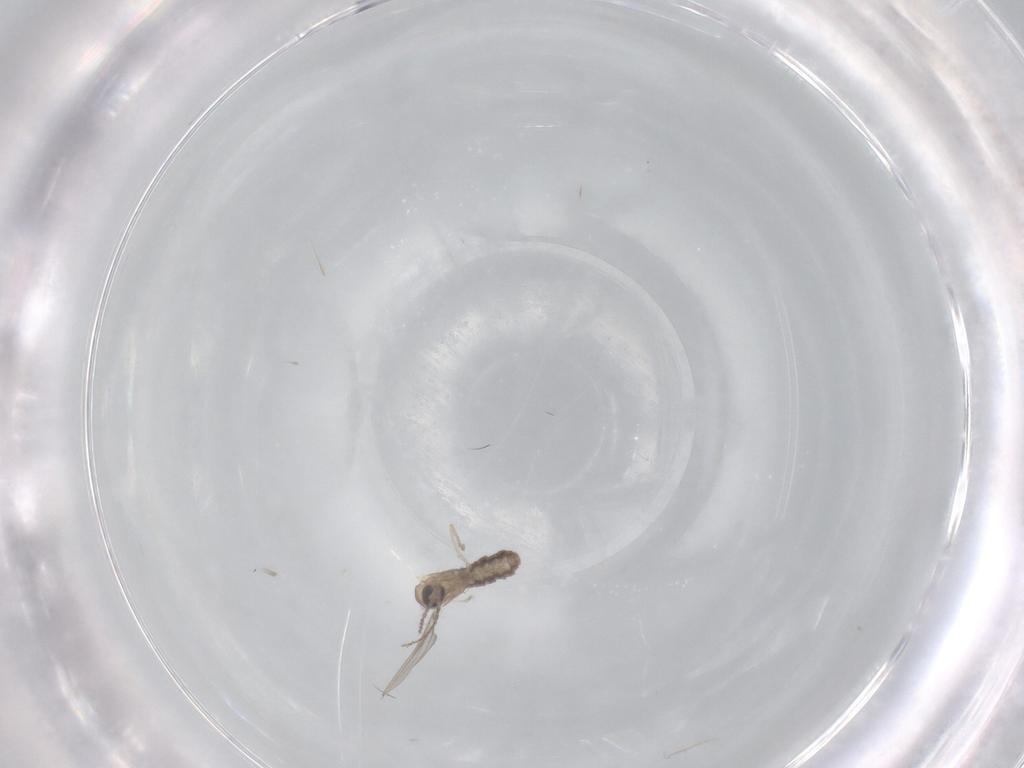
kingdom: Animalia
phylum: Arthropoda
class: Insecta
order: Diptera
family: Cecidomyiidae
